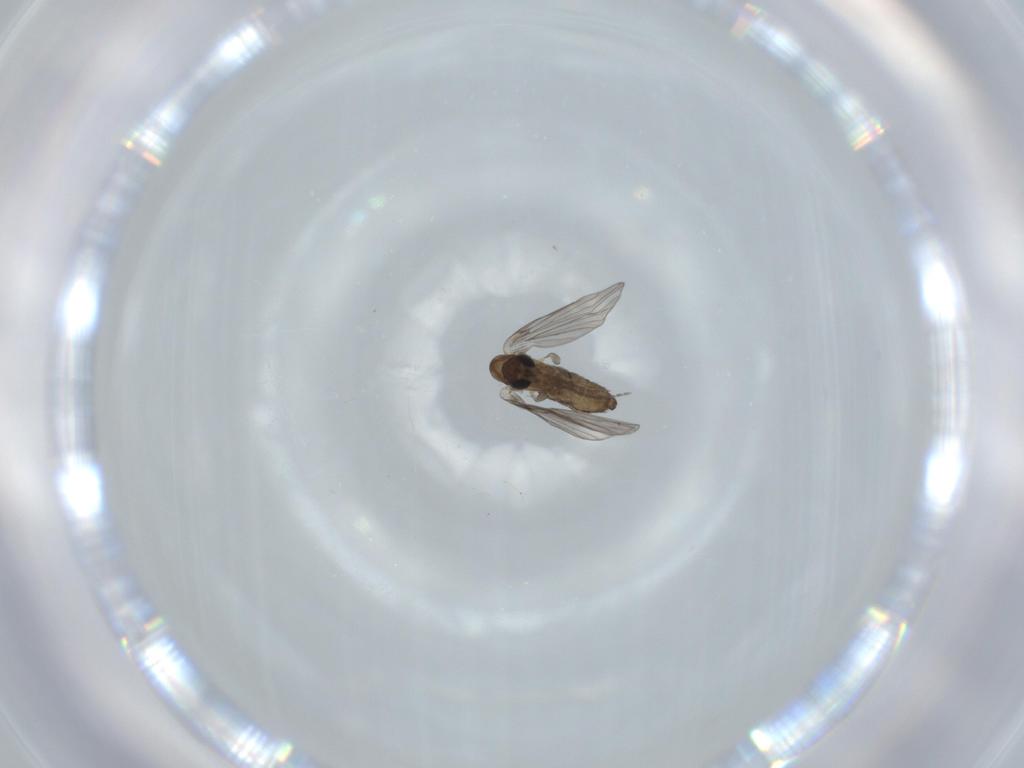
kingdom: Animalia
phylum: Arthropoda
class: Insecta
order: Diptera
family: Psychodidae
